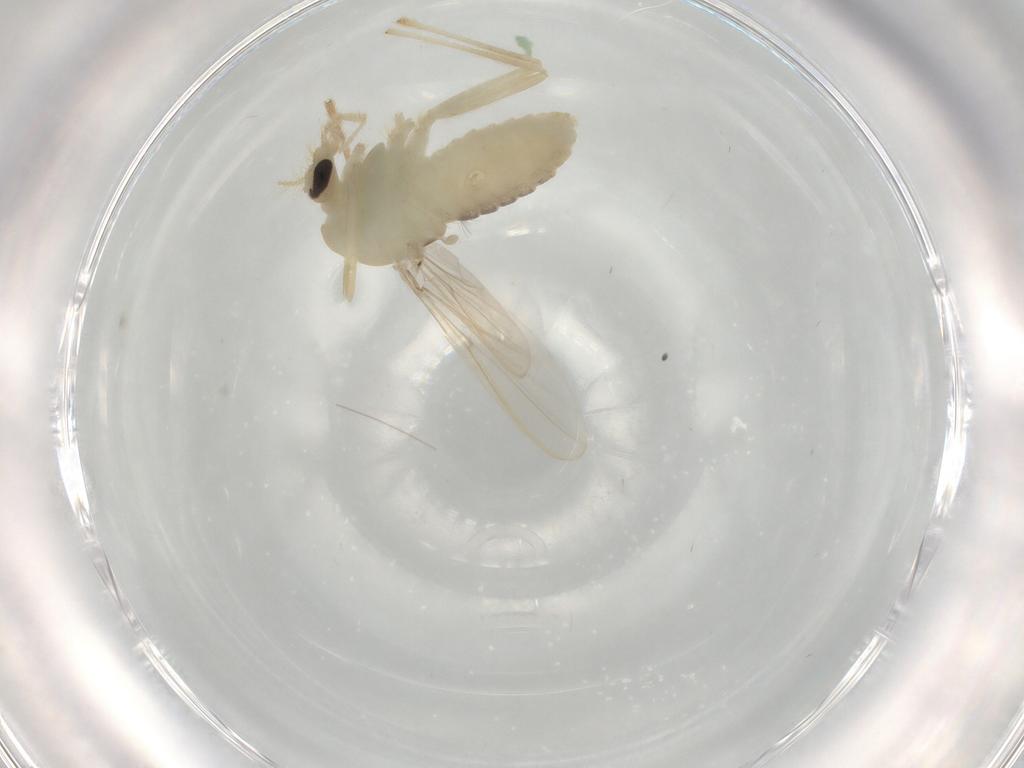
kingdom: Animalia
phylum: Arthropoda
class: Insecta
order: Diptera
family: Chironomidae
